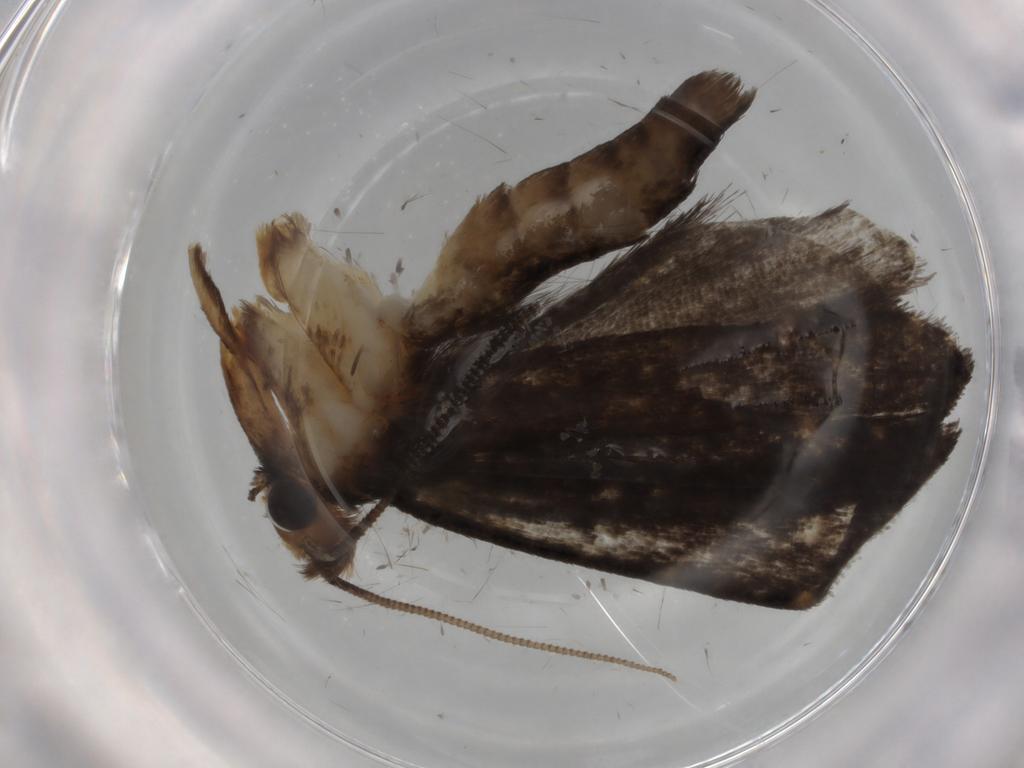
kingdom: Animalia
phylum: Arthropoda
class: Insecta
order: Lepidoptera
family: Tineidae
